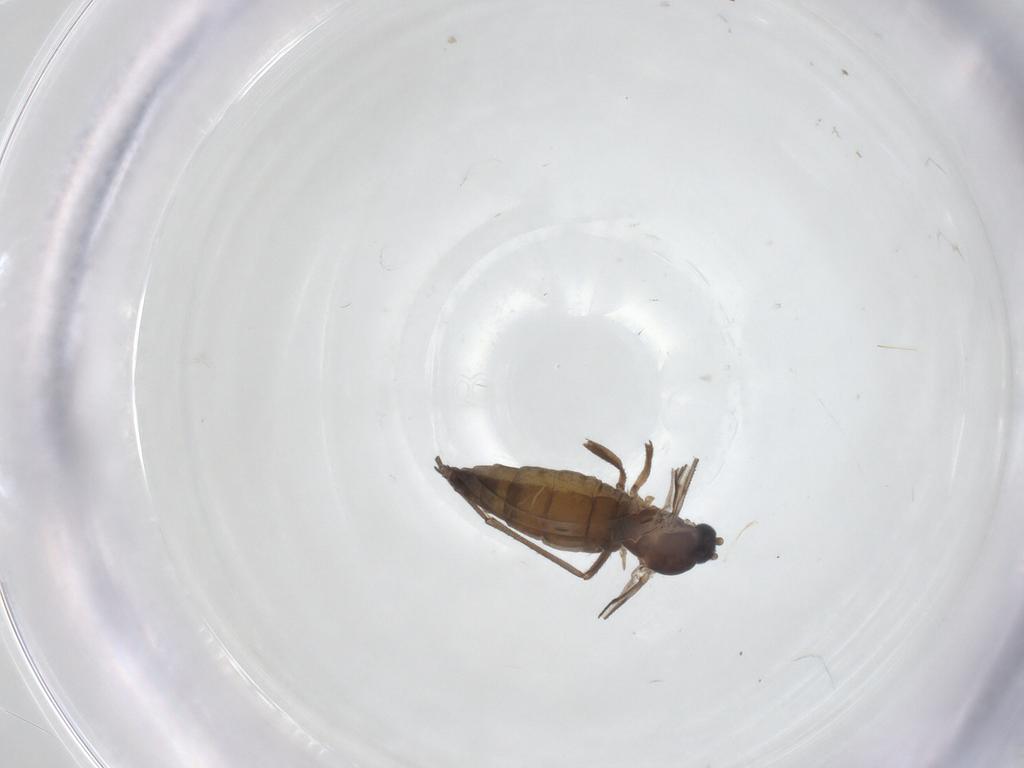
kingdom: Animalia
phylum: Arthropoda
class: Insecta
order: Diptera
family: Sciaridae
